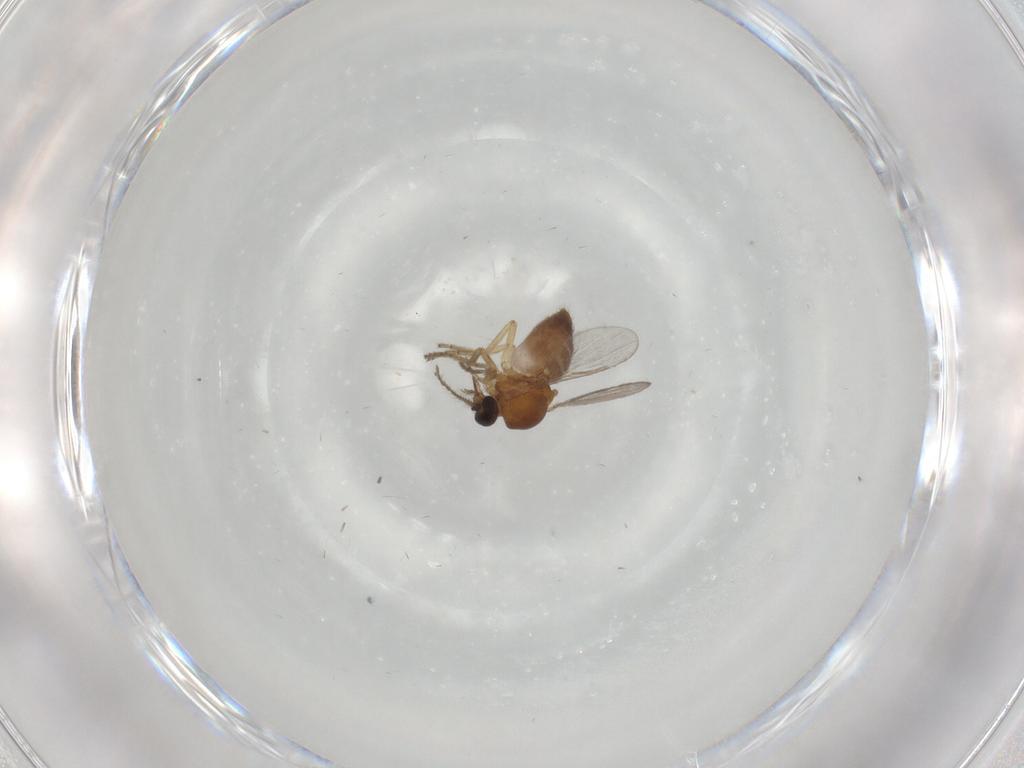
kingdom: Animalia
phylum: Arthropoda
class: Insecta
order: Diptera
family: Ceratopogonidae
